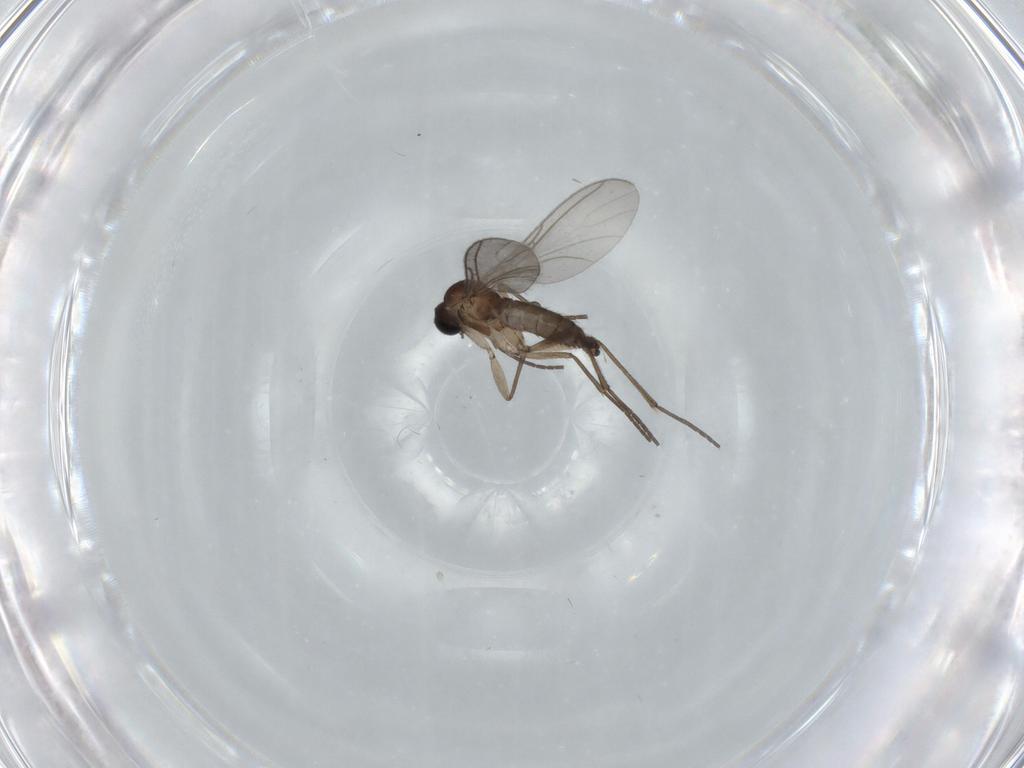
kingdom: Animalia
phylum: Arthropoda
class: Insecta
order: Diptera
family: Sciaridae
